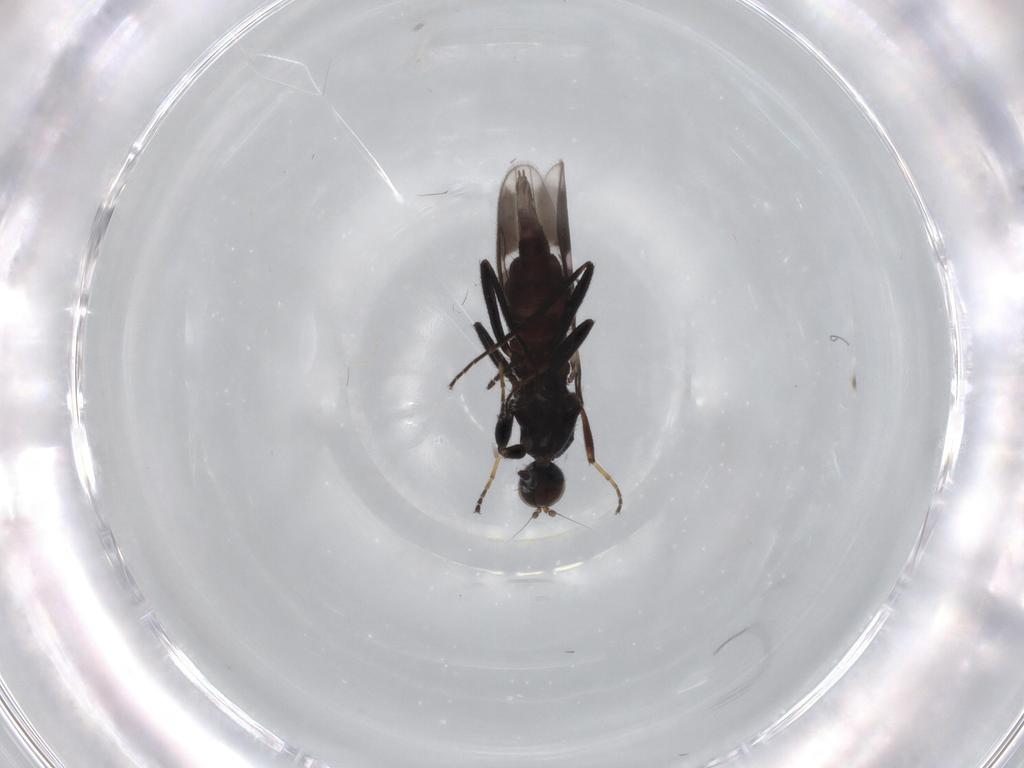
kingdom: Animalia
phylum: Arthropoda
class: Insecta
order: Diptera
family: Hybotidae
